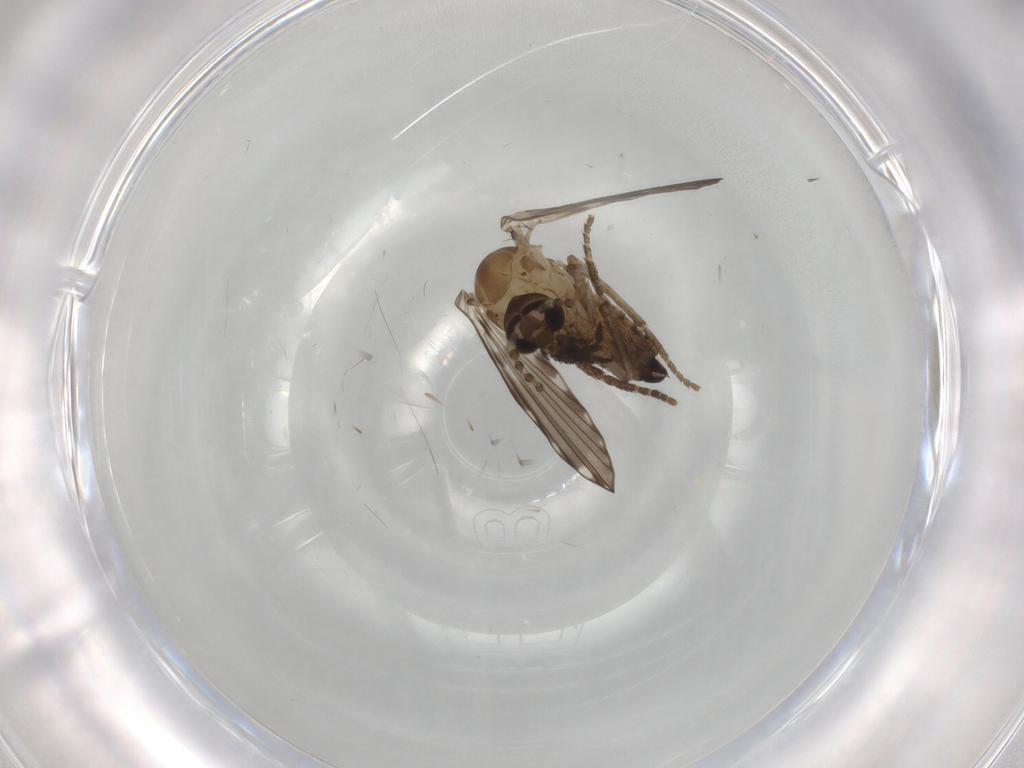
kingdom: Animalia
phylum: Arthropoda
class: Insecta
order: Diptera
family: Psychodidae
